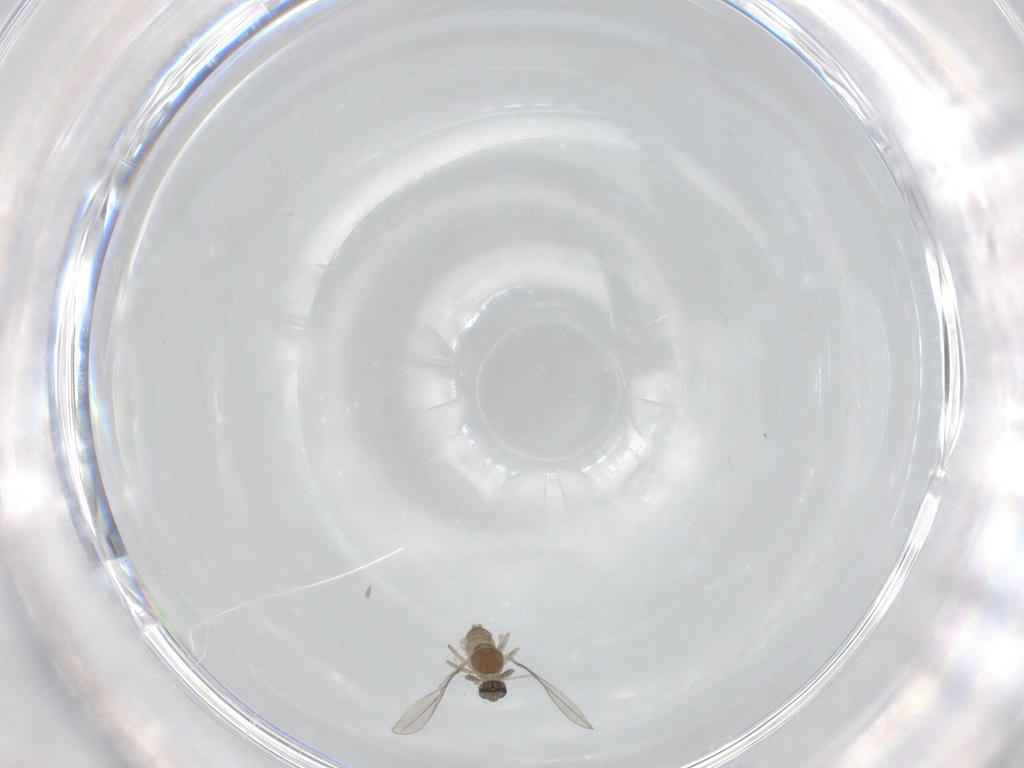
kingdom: Animalia
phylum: Arthropoda
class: Insecta
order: Diptera
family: Cecidomyiidae
